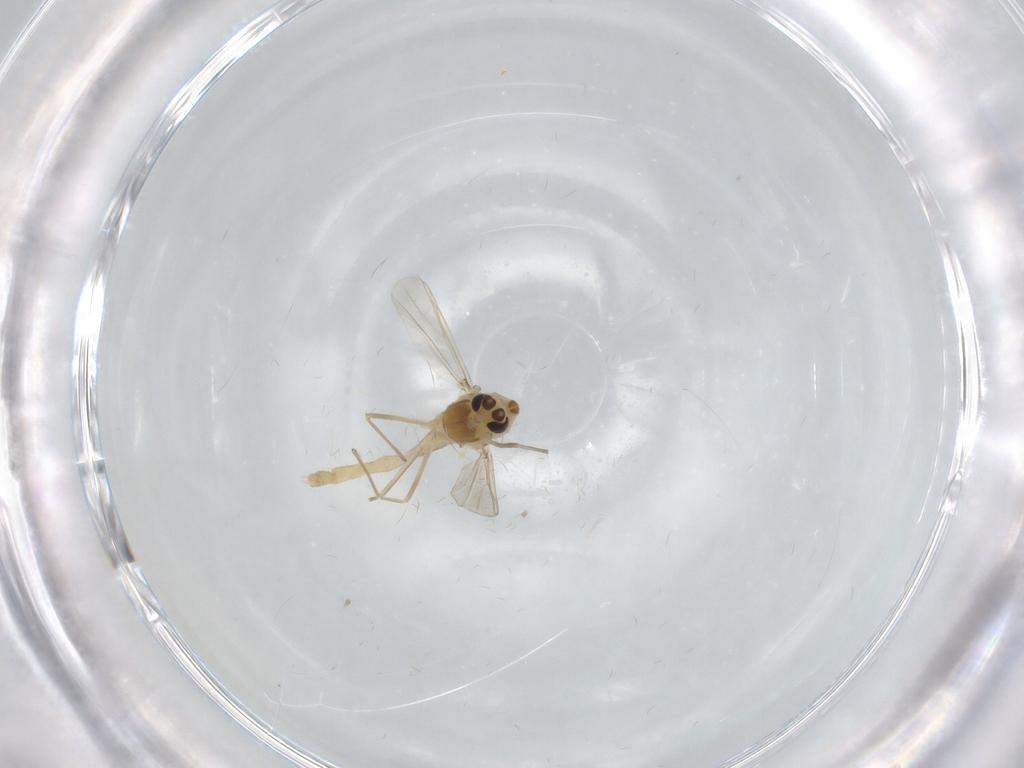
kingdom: Animalia
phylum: Arthropoda
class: Insecta
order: Diptera
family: Chironomidae
